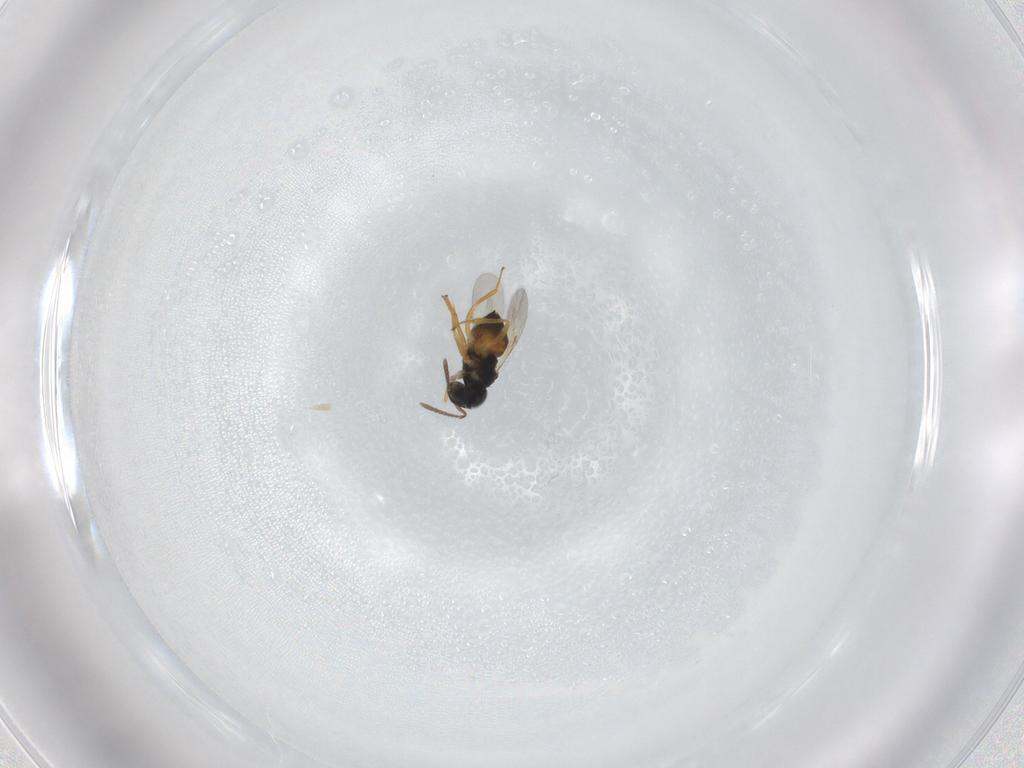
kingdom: Animalia
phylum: Arthropoda
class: Insecta
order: Hymenoptera
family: Encyrtidae
